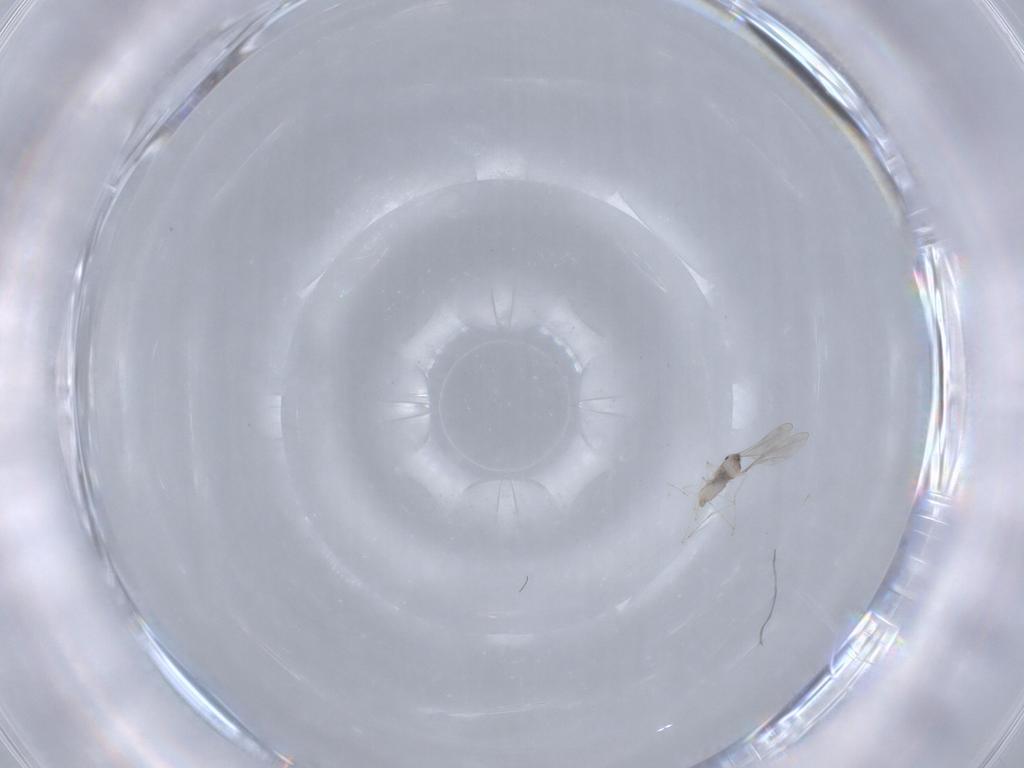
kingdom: Animalia
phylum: Arthropoda
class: Insecta
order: Diptera
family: Cecidomyiidae
